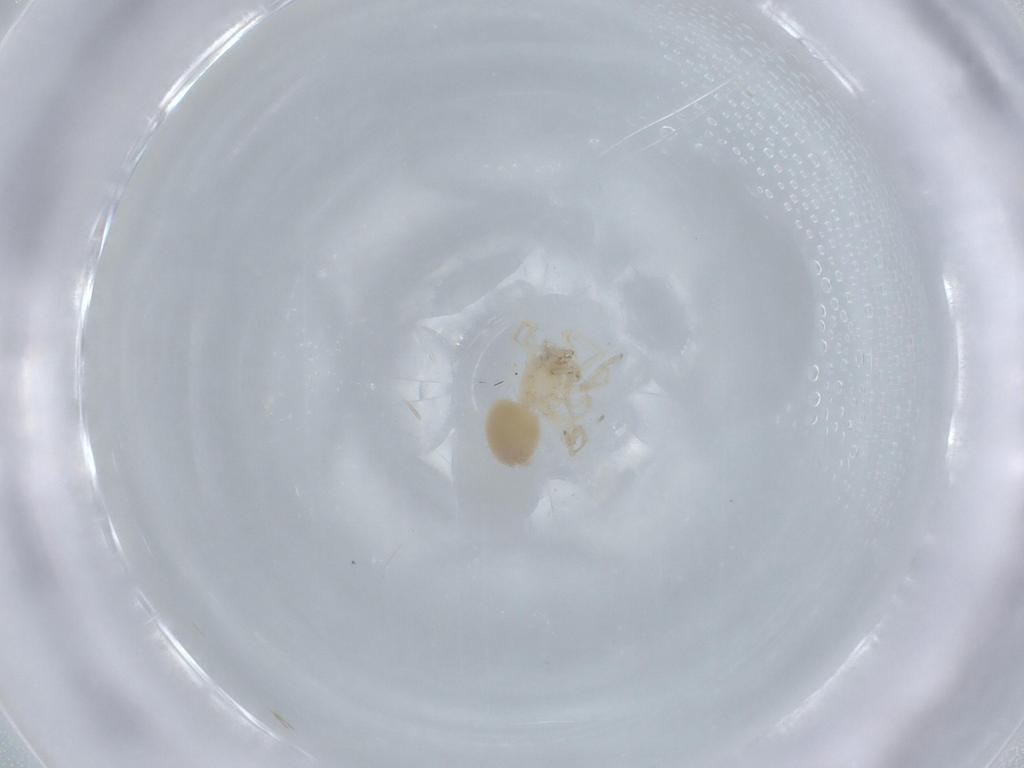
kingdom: Animalia
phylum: Arthropoda
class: Arachnida
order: Araneae
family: Oonopidae
